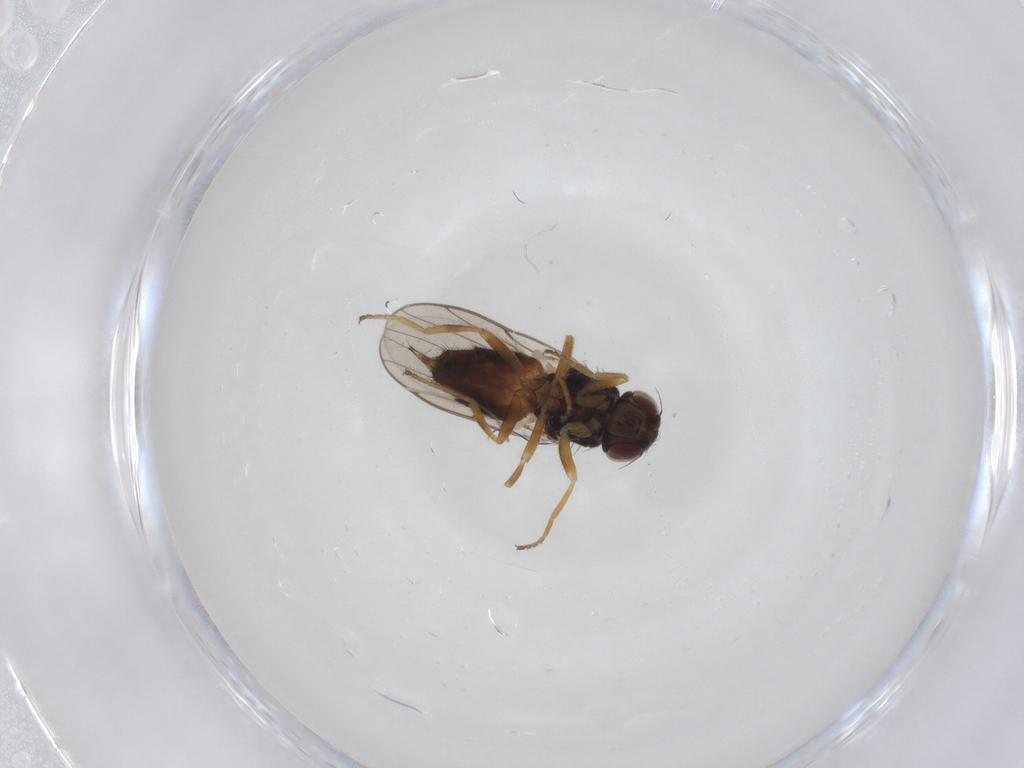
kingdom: Animalia
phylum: Arthropoda
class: Insecta
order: Diptera
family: Chloropidae
